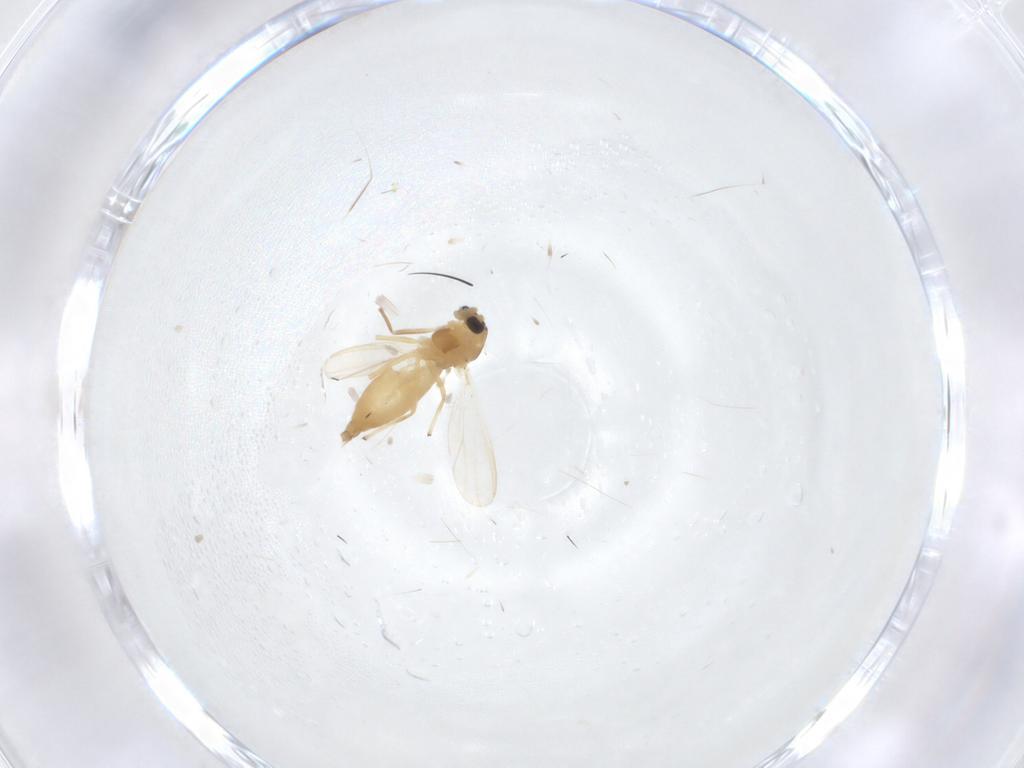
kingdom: Animalia
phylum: Arthropoda
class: Insecta
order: Diptera
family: Chironomidae
